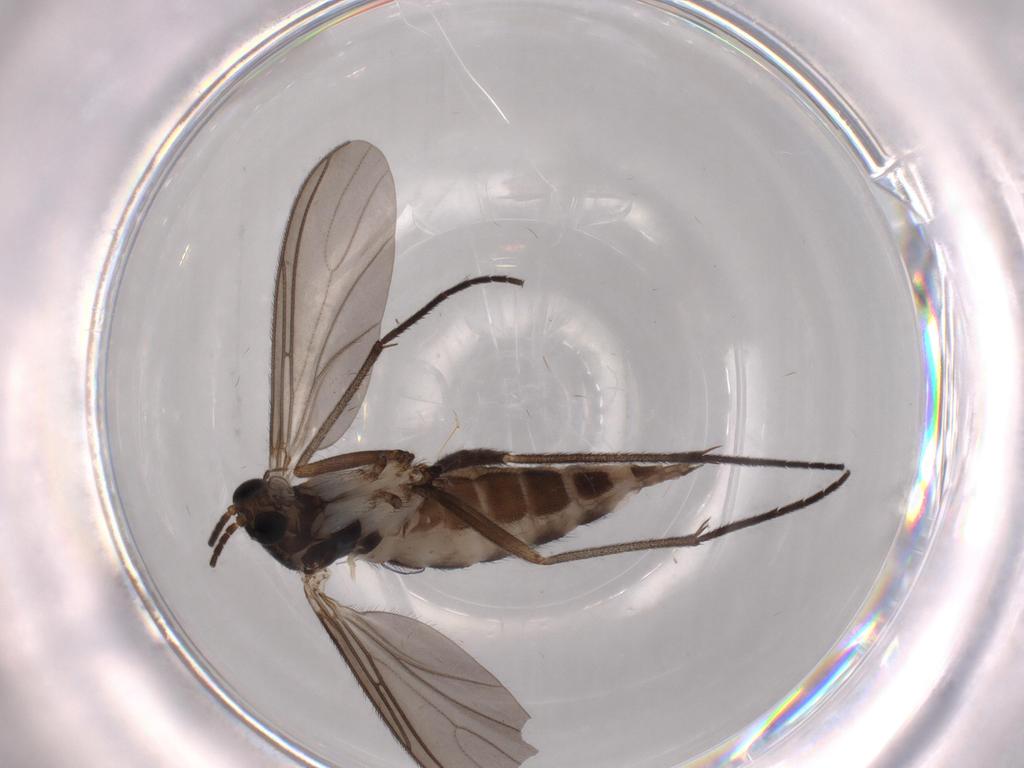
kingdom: Animalia
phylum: Arthropoda
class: Insecta
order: Diptera
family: Sciaridae
